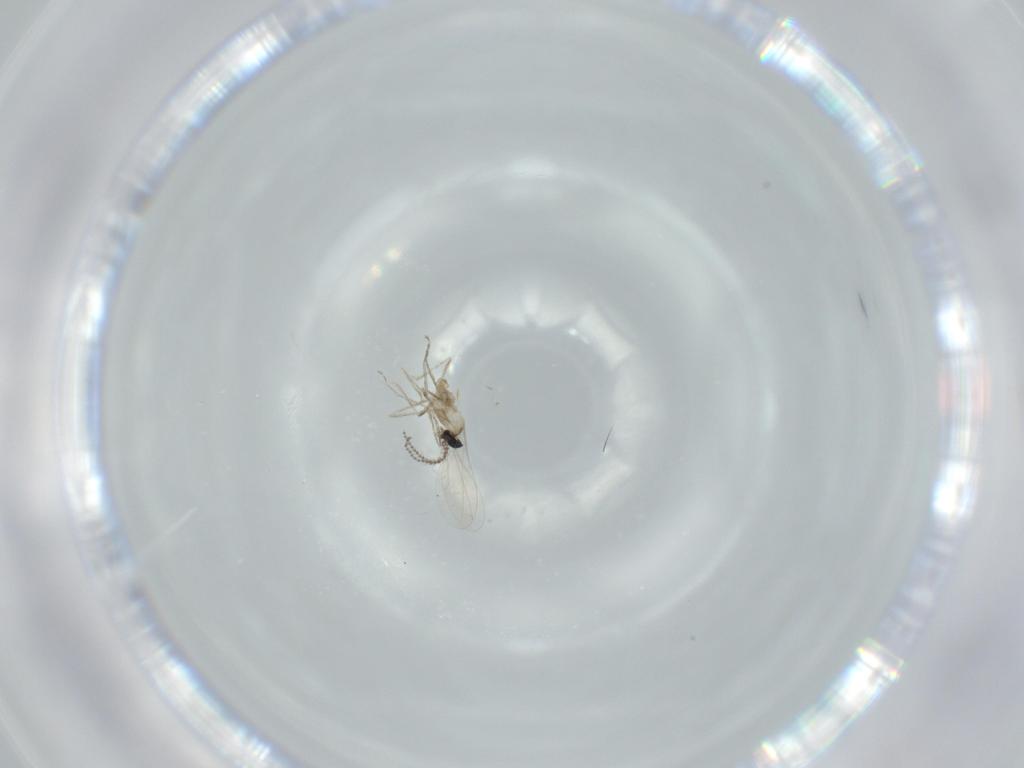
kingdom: Animalia
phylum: Arthropoda
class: Insecta
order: Diptera
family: Cecidomyiidae
